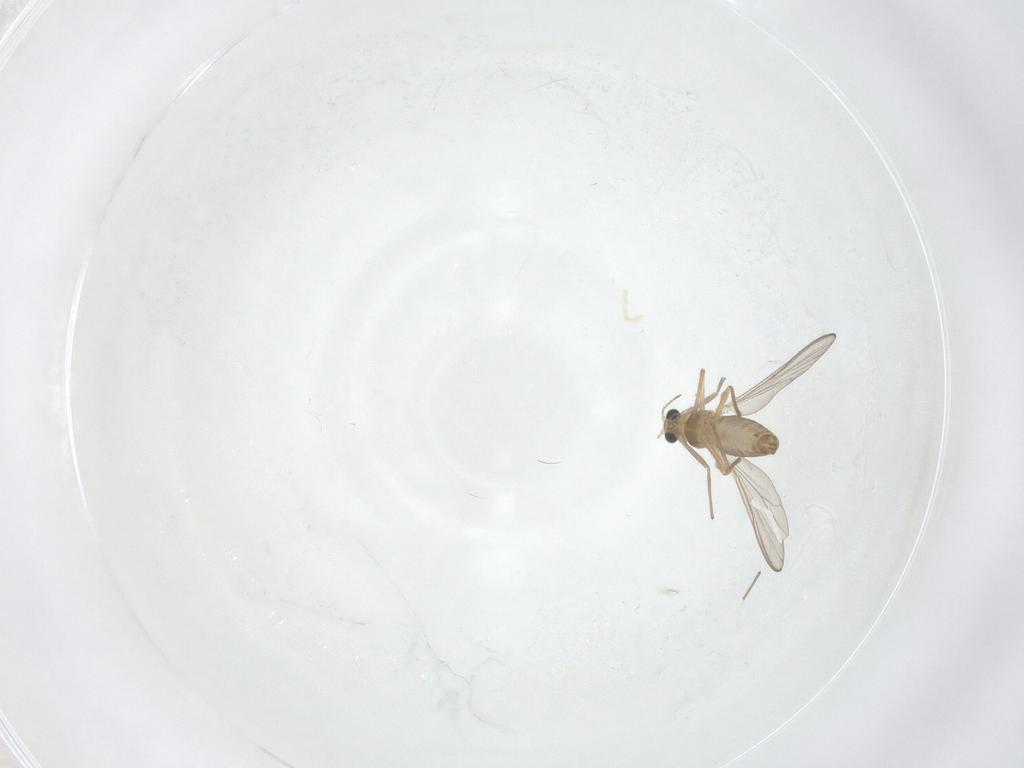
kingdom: Animalia
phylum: Arthropoda
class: Insecta
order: Diptera
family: Chironomidae
